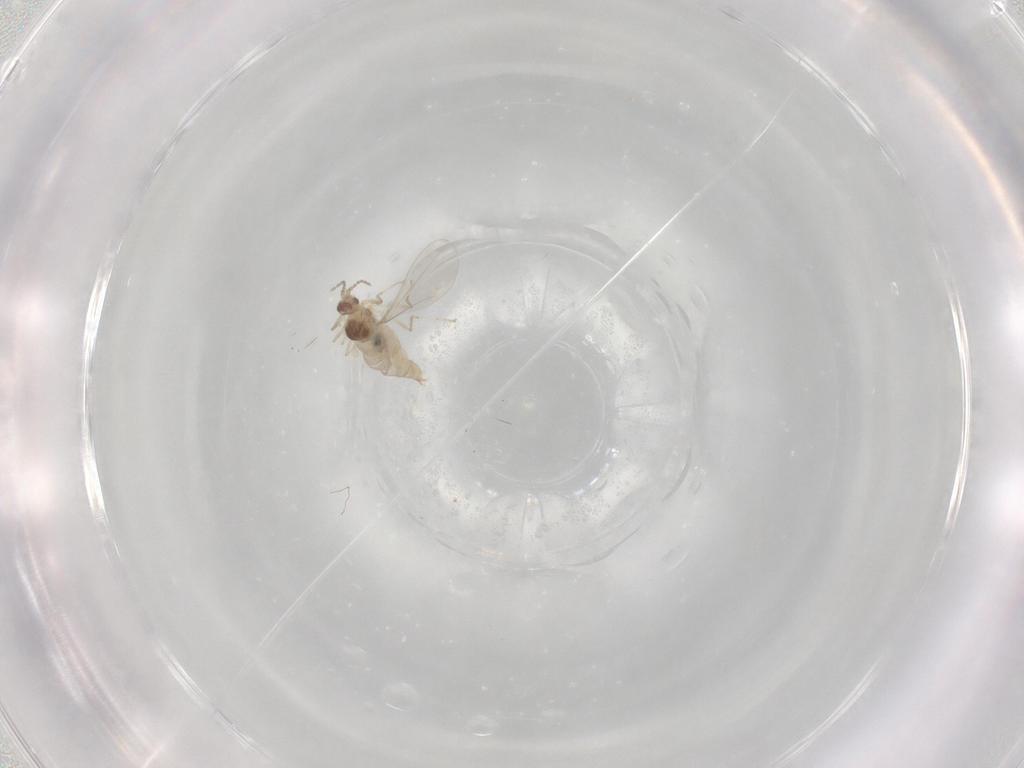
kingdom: Animalia
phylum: Arthropoda
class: Insecta
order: Diptera
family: Cecidomyiidae
